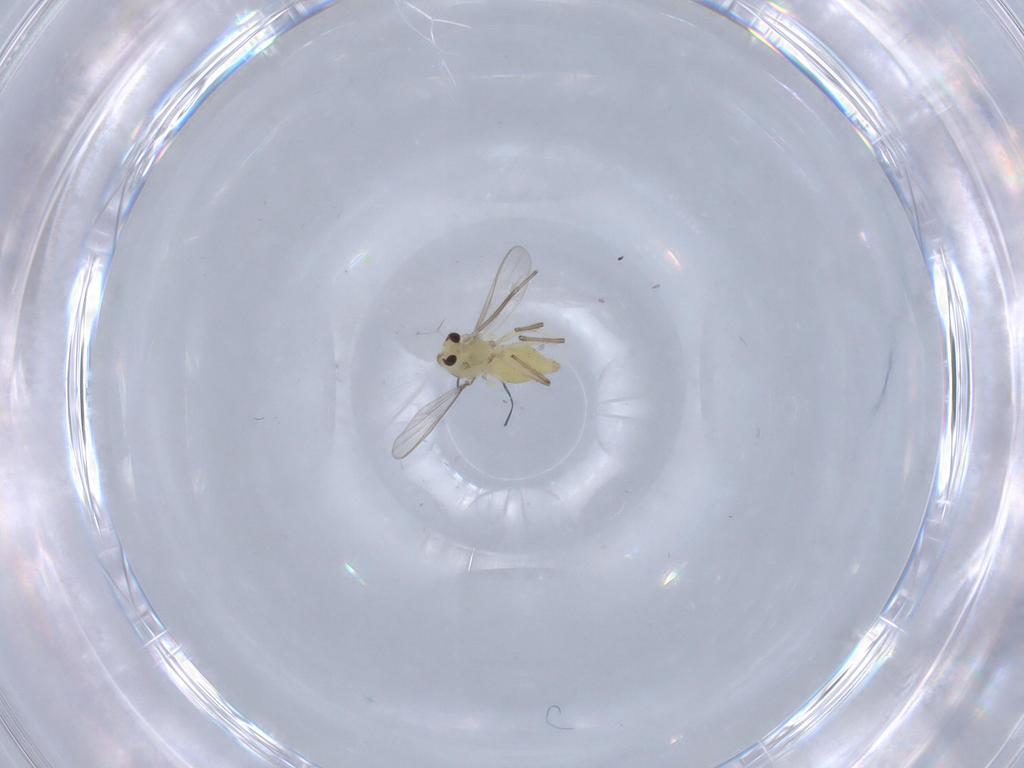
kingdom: Animalia
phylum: Arthropoda
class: Insecta
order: Diptera
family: Chironomidae
